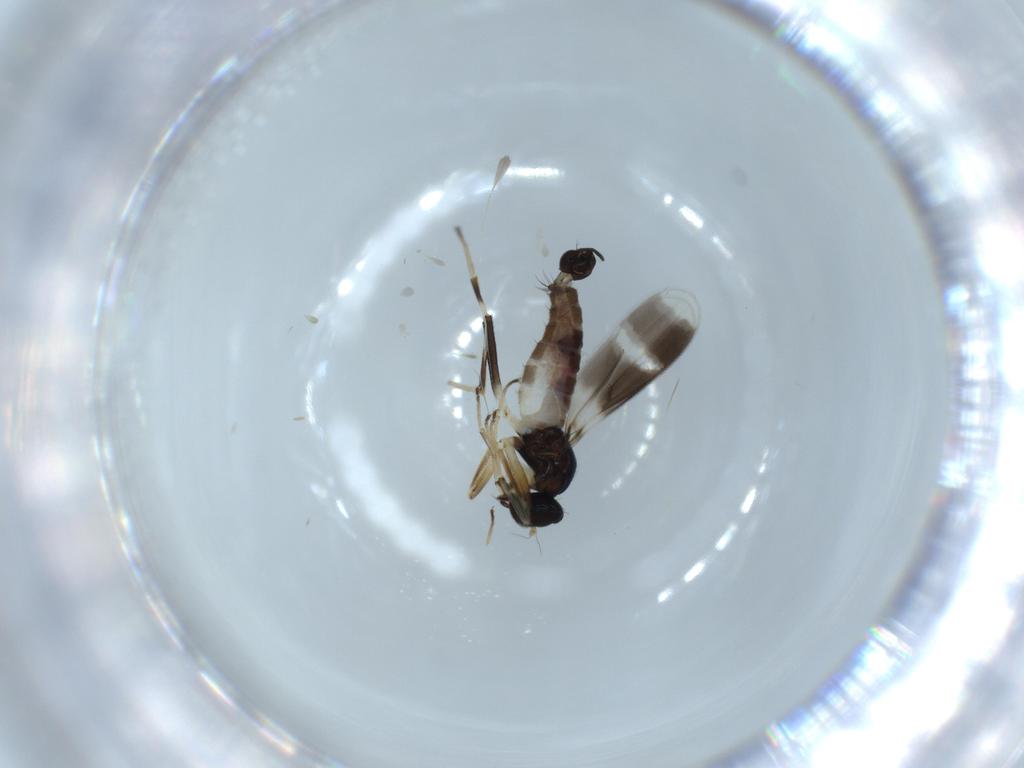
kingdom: Animalia
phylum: Arthropoda
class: Insecta
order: Diptera
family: Hybotidae
